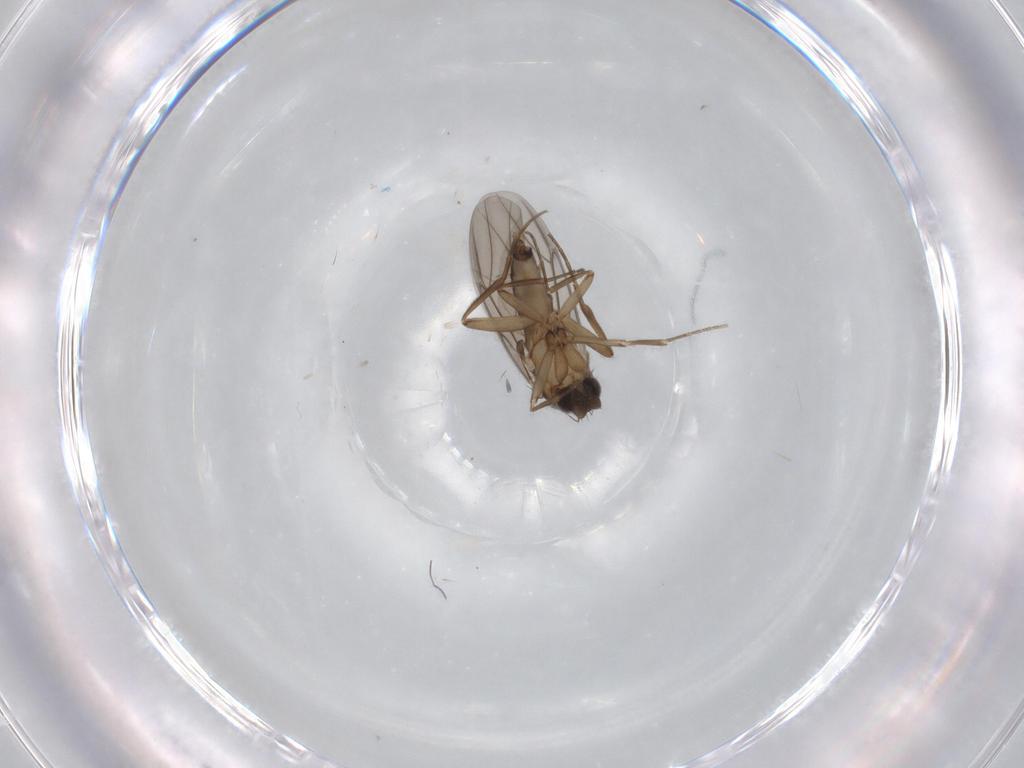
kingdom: Animalia
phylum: Arthropoda
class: Insecta
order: Diptera
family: Phoridae
